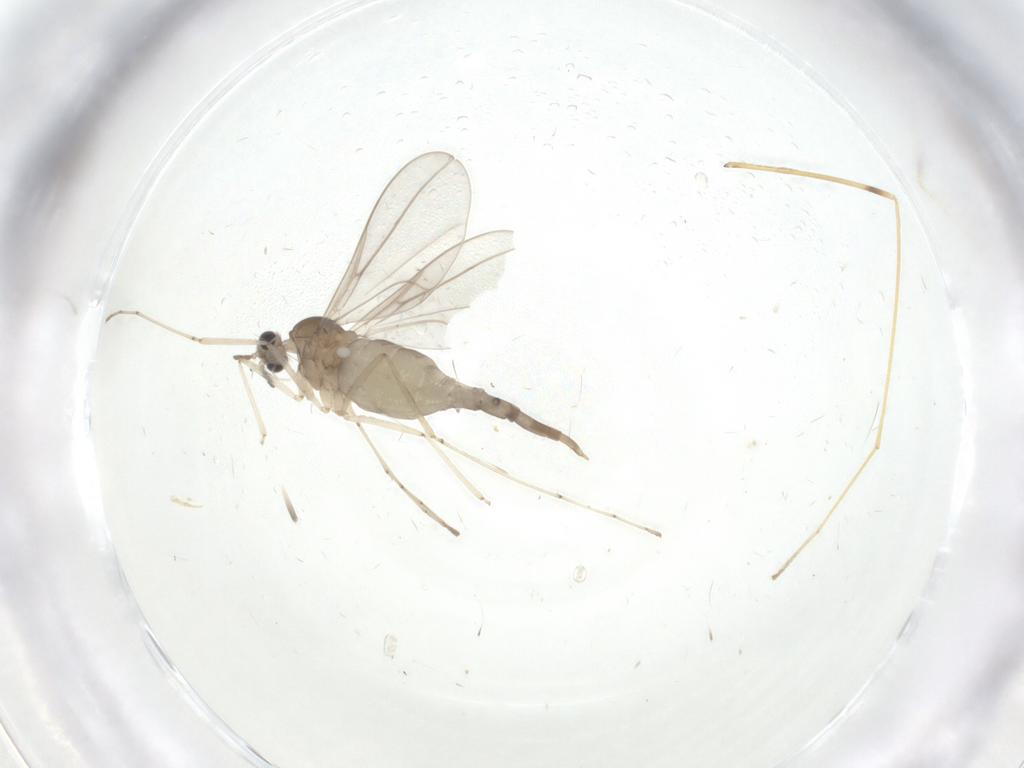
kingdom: Animalia
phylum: Arthropoda
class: Insecta
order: Diptera
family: Cecidomyiidae
